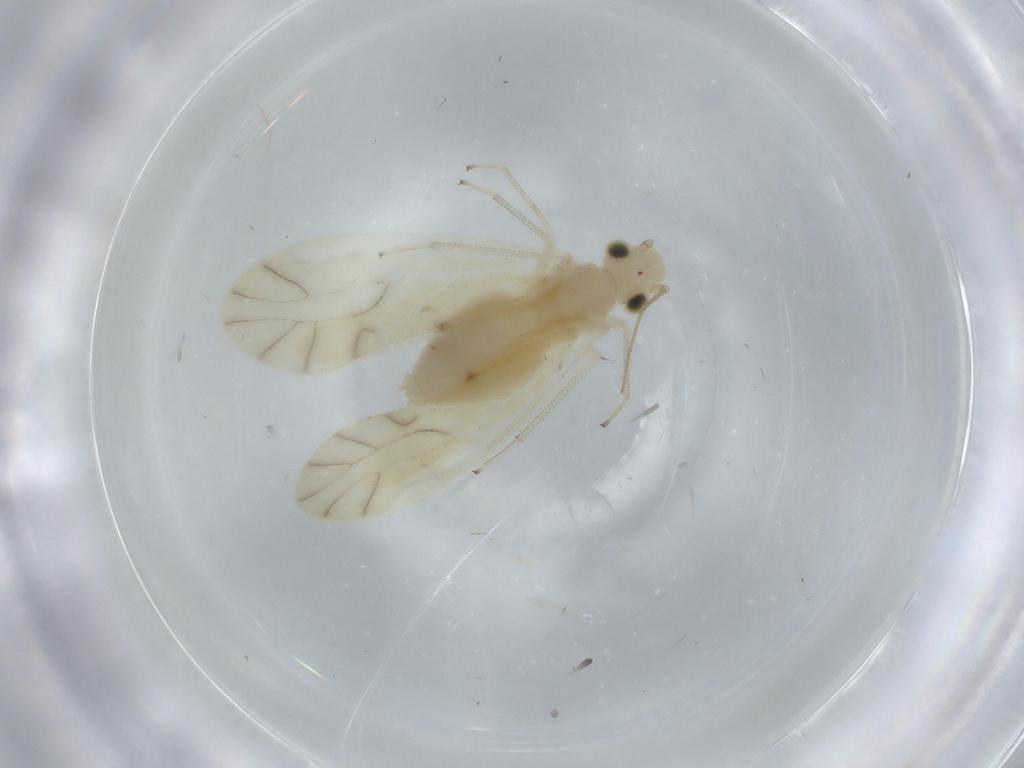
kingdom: Animalia
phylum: Arthropoda
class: Insecta
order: Psocodea
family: Caeciliusidae
